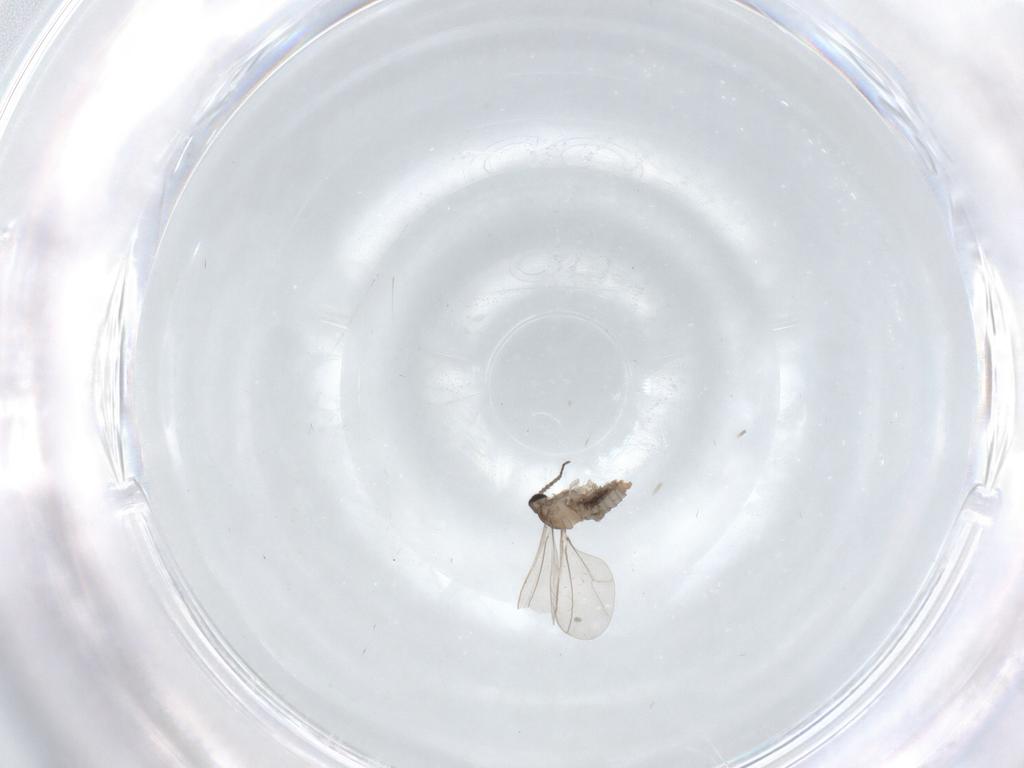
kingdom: Animalia
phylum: Arthropoda
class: Insecta
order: Diptera
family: Cecidomyiidae
